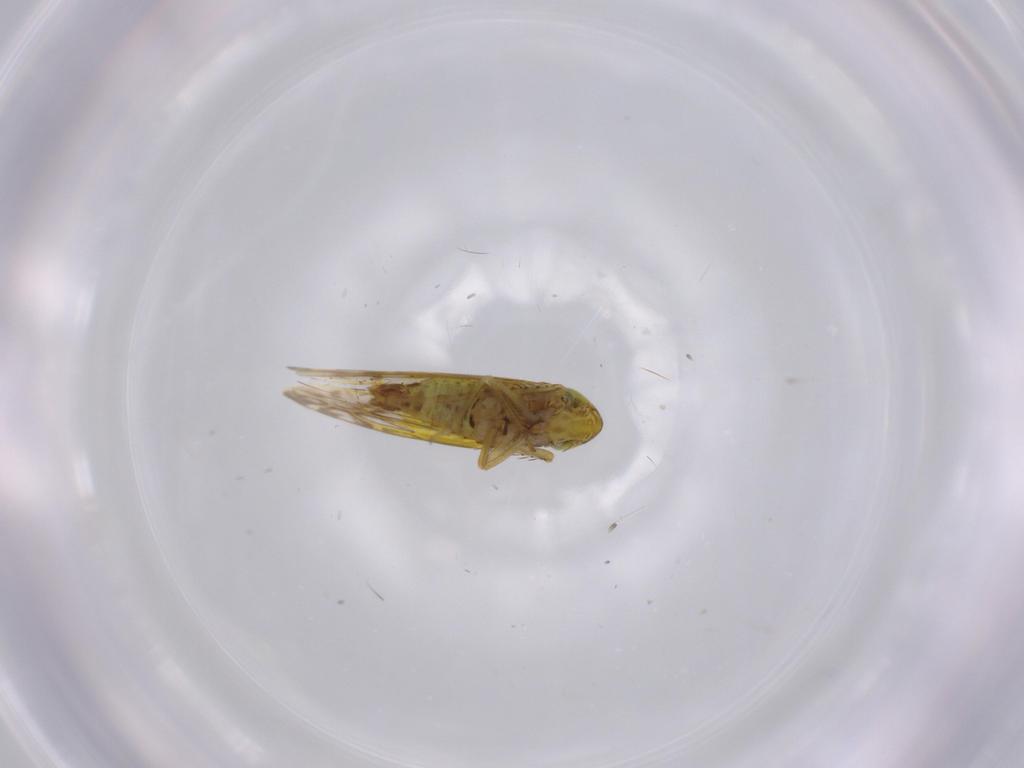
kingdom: Animalia
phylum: Arthropoda
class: Insecta
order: Hemiptera
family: Cicadellidae
